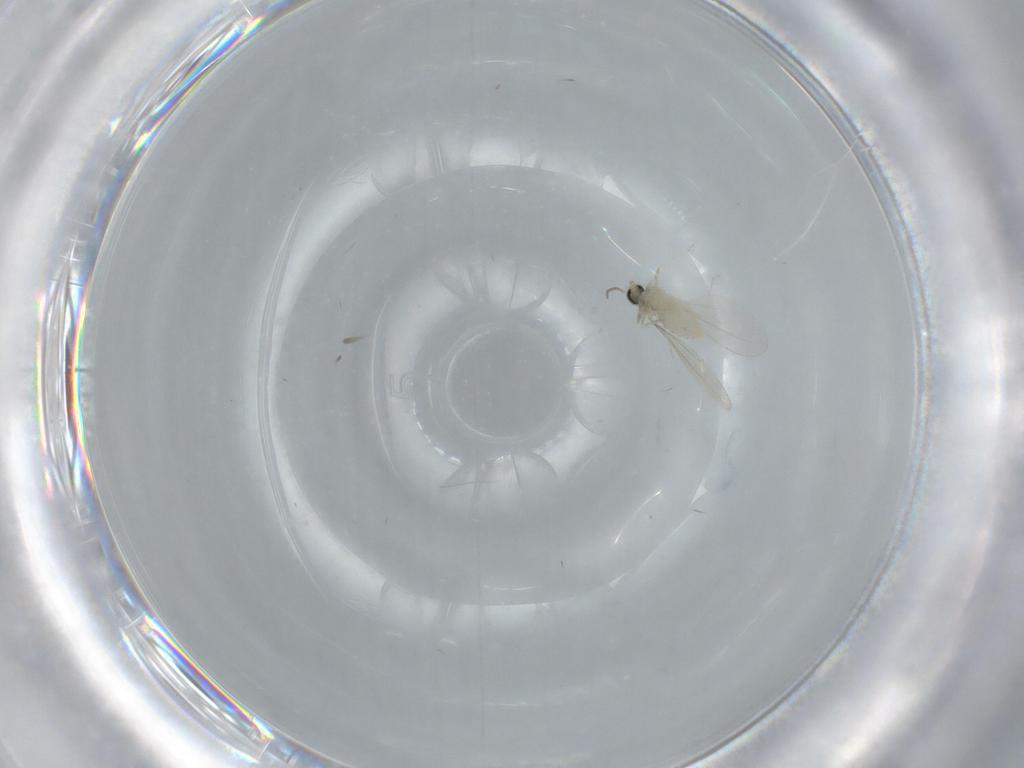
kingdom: Animalia
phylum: Arthropoda
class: Insecta
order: Diptera
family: Cecidomyiidae
